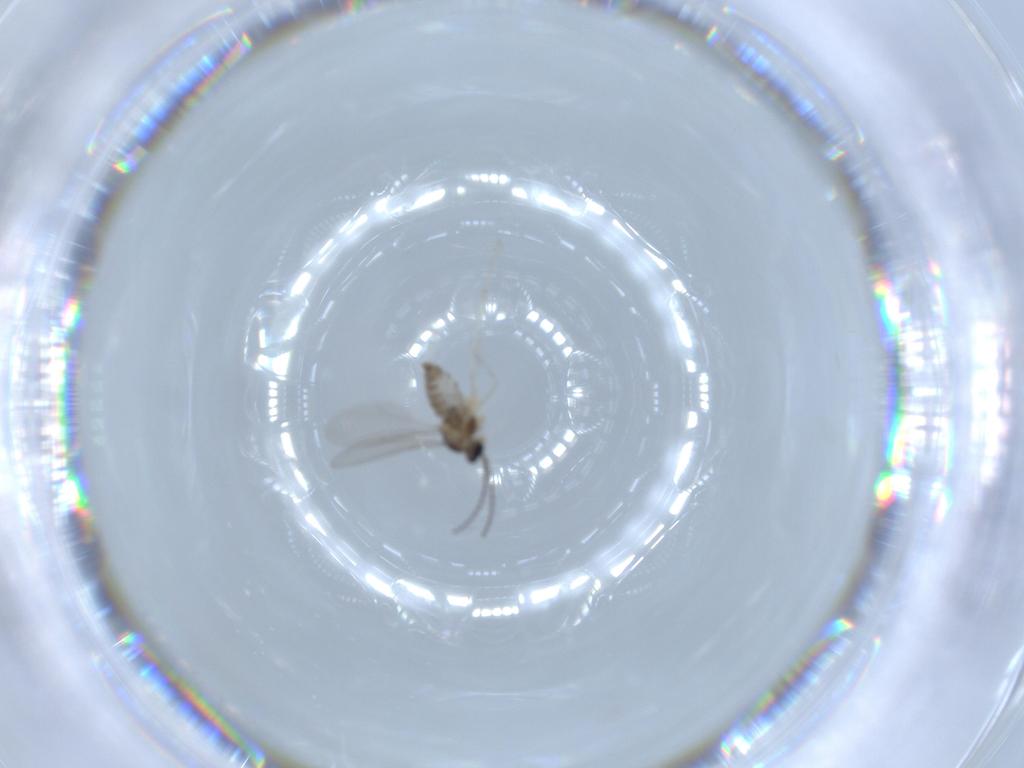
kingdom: Animalia
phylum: Arthropoda
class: Insecta
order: Diptera
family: Cecidomyiidae
